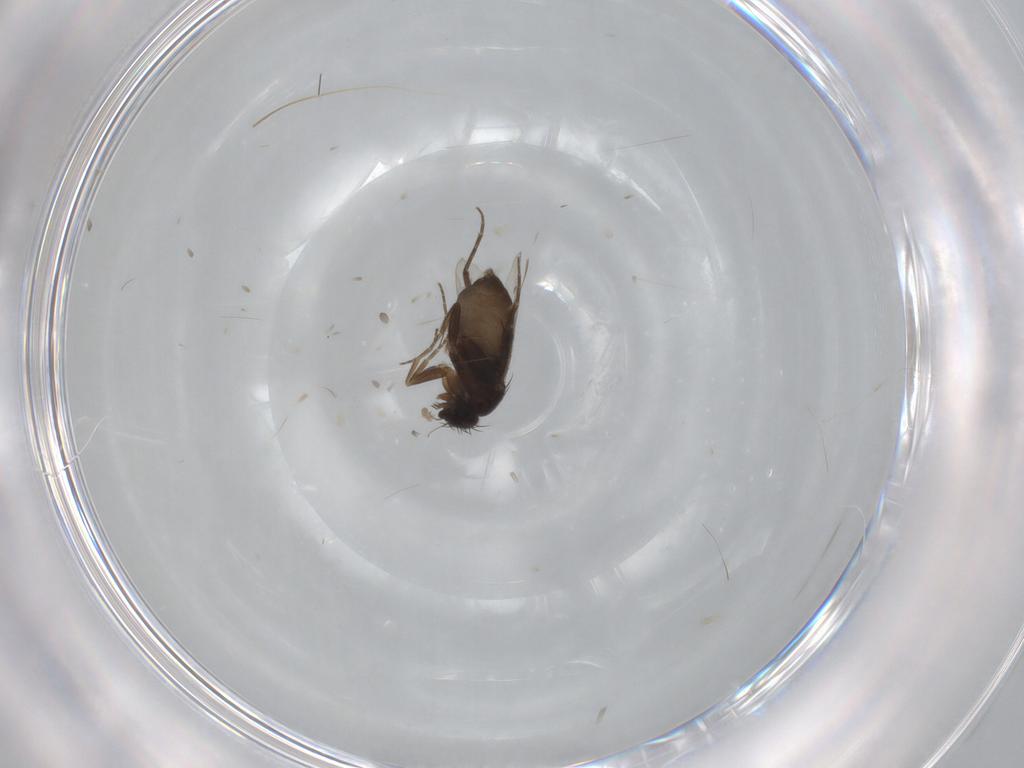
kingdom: Animalia
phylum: Arthropoda
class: Insecta
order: Diptera
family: Phoridae
